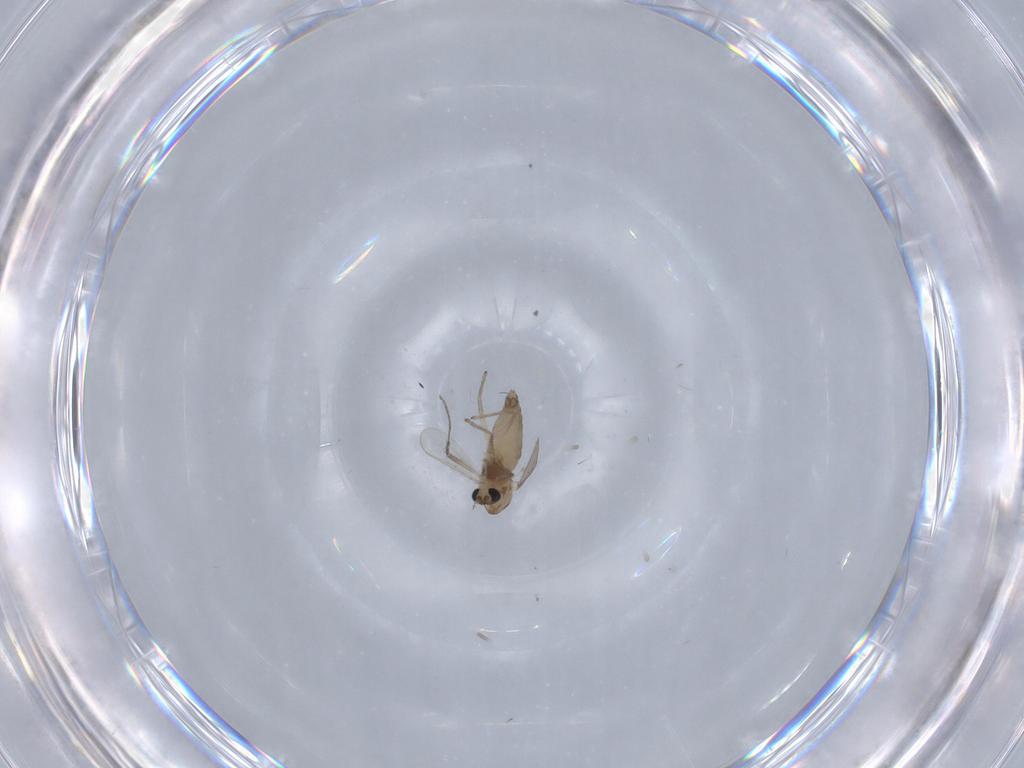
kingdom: Animalia
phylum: Arthropoda
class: Insecta
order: Diptera
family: Chironomidae
